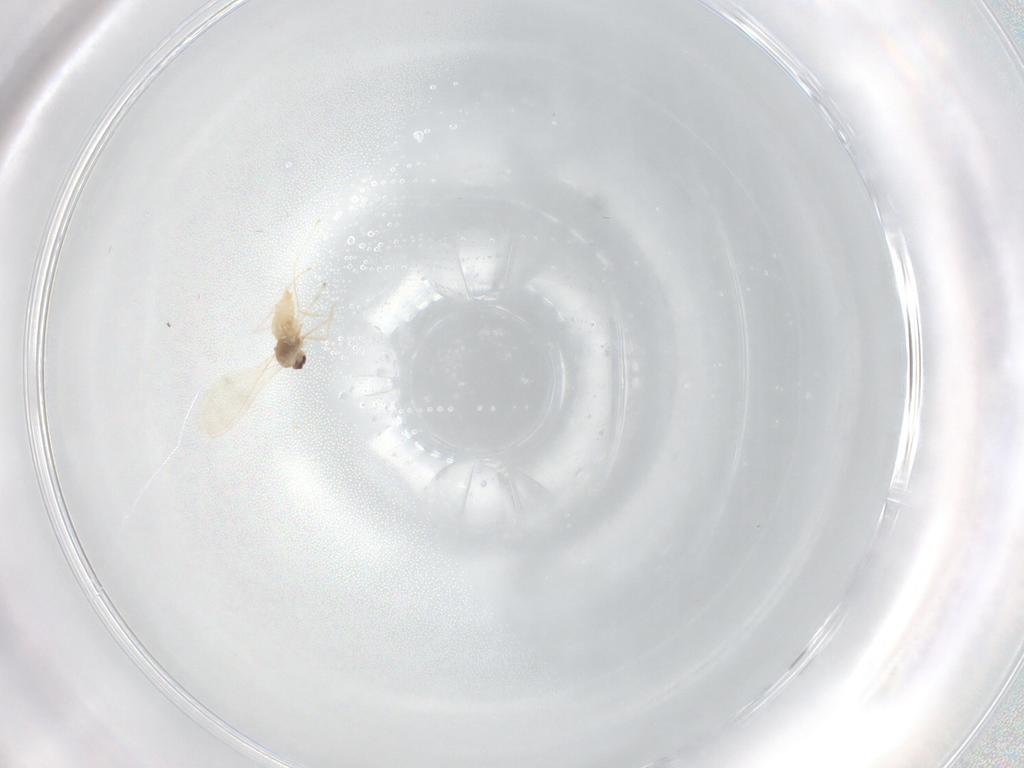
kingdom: Animalia
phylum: Arthropoda
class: Insecta
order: Diptera
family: Cecidomyiidae
